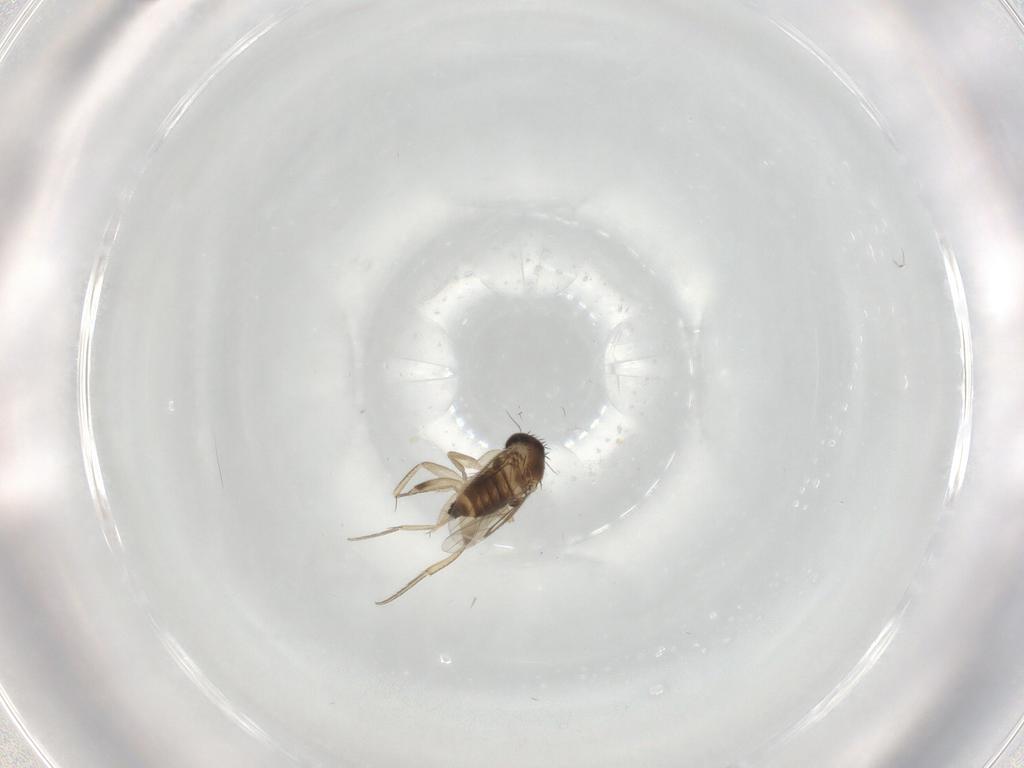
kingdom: Animalia
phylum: Arthropoda
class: Insecta
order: Diptera
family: Phoridae
